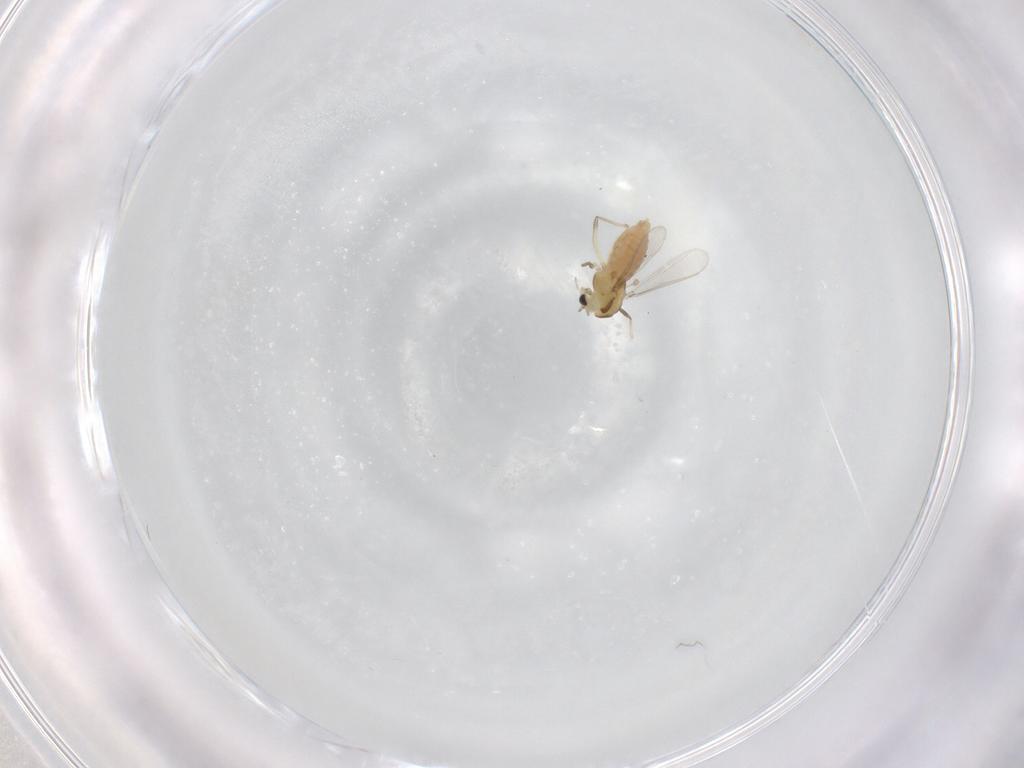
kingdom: Animalia
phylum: Arthropoda
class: Insecta
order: Diptera
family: Chironomidae
